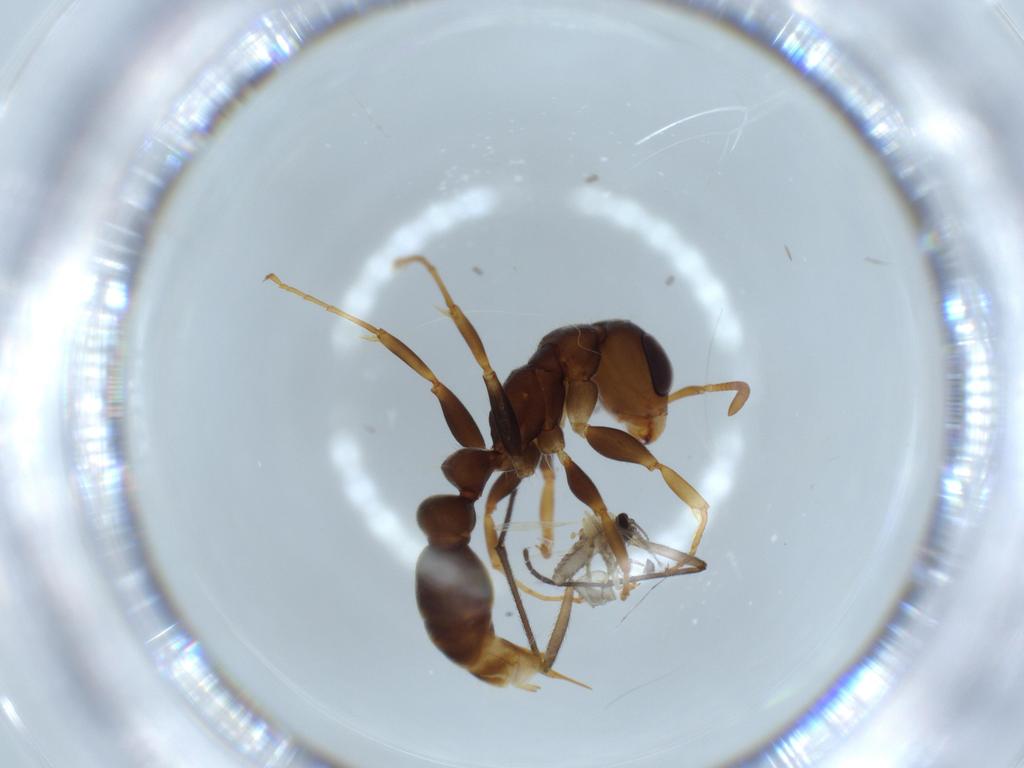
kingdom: Animalia
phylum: Arthropoda
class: Insecta
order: Hymenoptera
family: Formicidae
